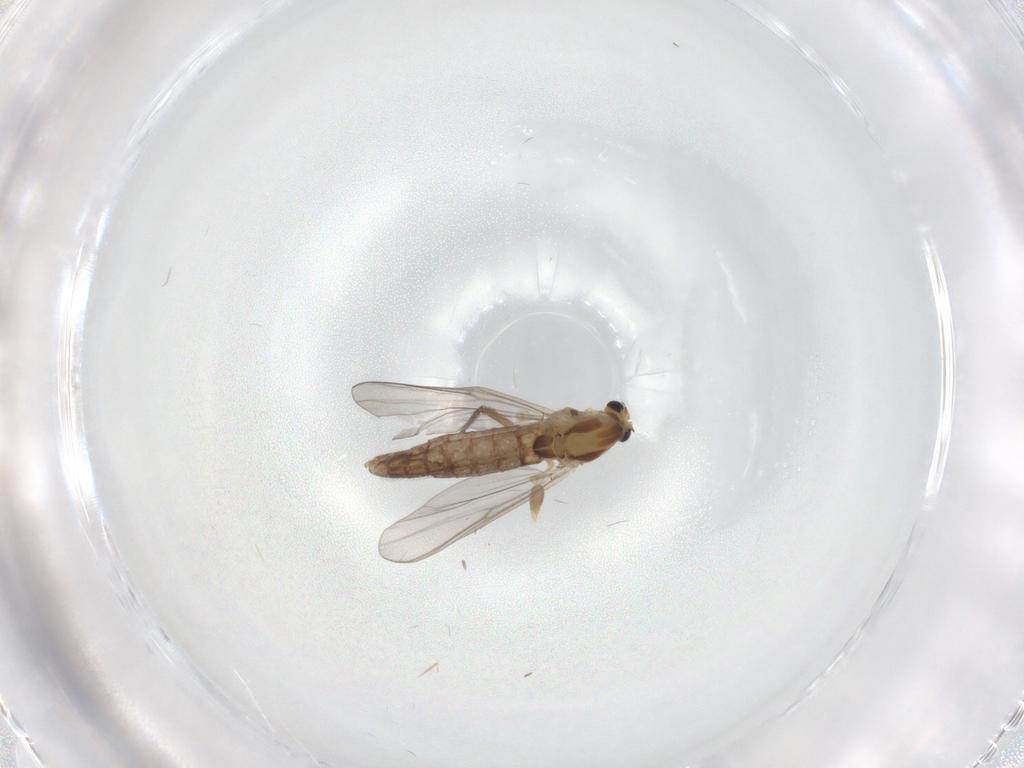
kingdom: Animalia
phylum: Arthropoda
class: Insecta
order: Diptera
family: Chironomidae
